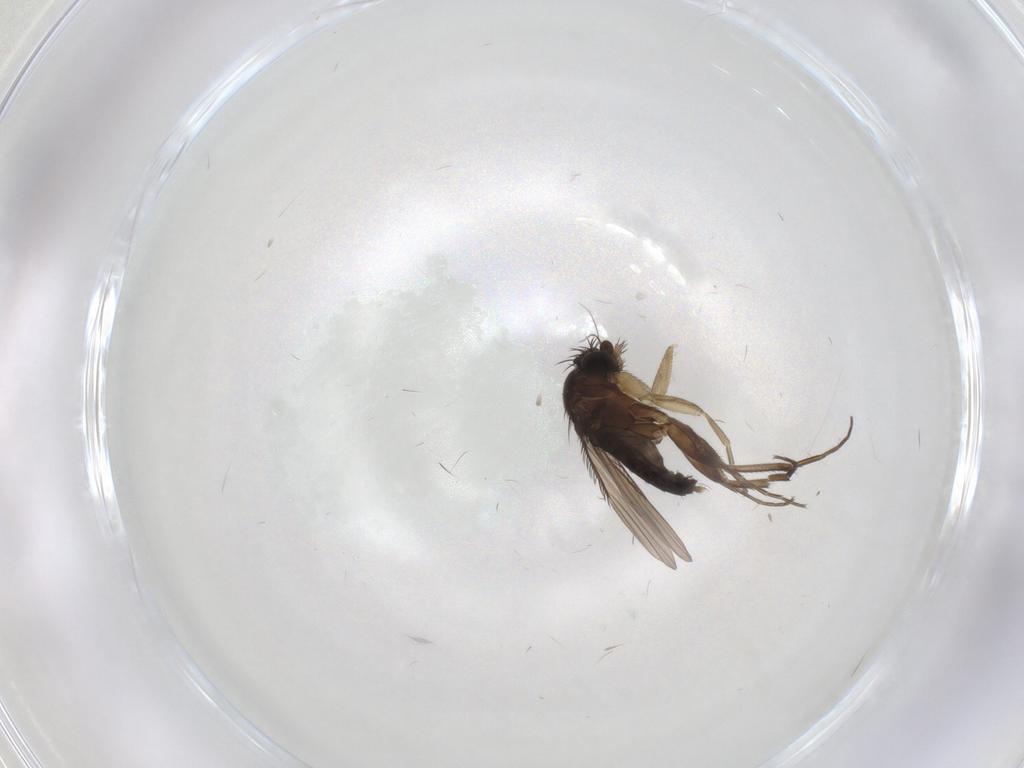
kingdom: Animalia
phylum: Arthropoda
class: Insecta
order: Diptera
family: Phoridae
